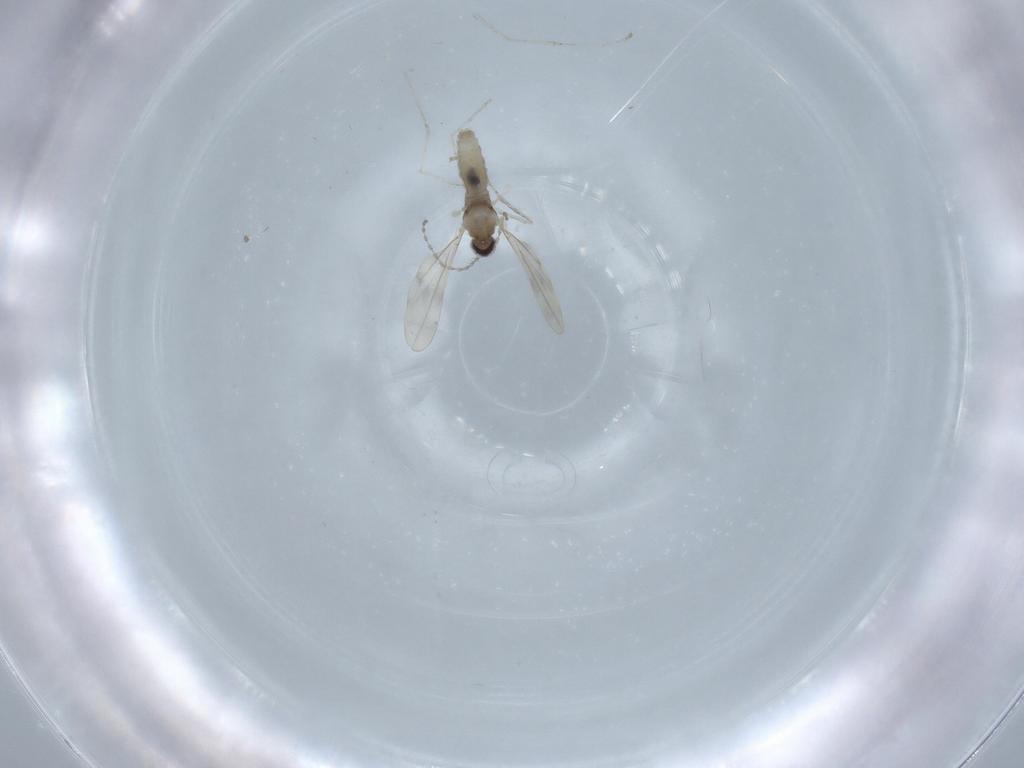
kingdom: Animalia
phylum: Arthropoda
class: Insecta
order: Diptera
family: Cecidomyiidae
